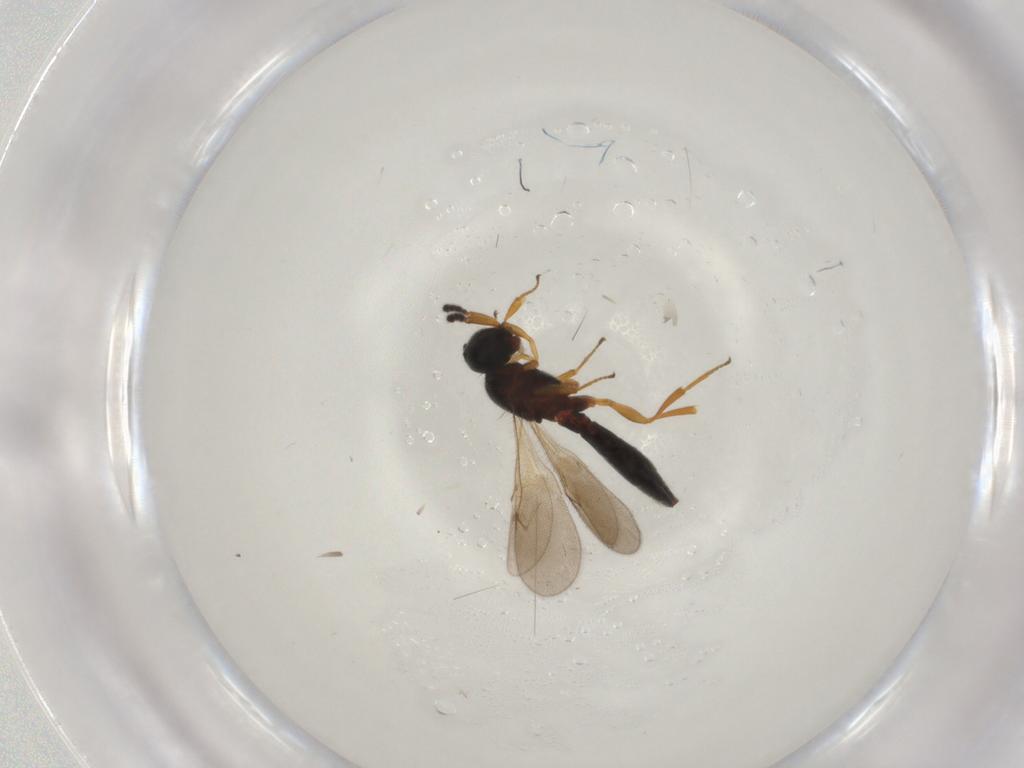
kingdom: Animalia
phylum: Arthropoda
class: Insecta
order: Hymenoptera
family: Scelionidae
